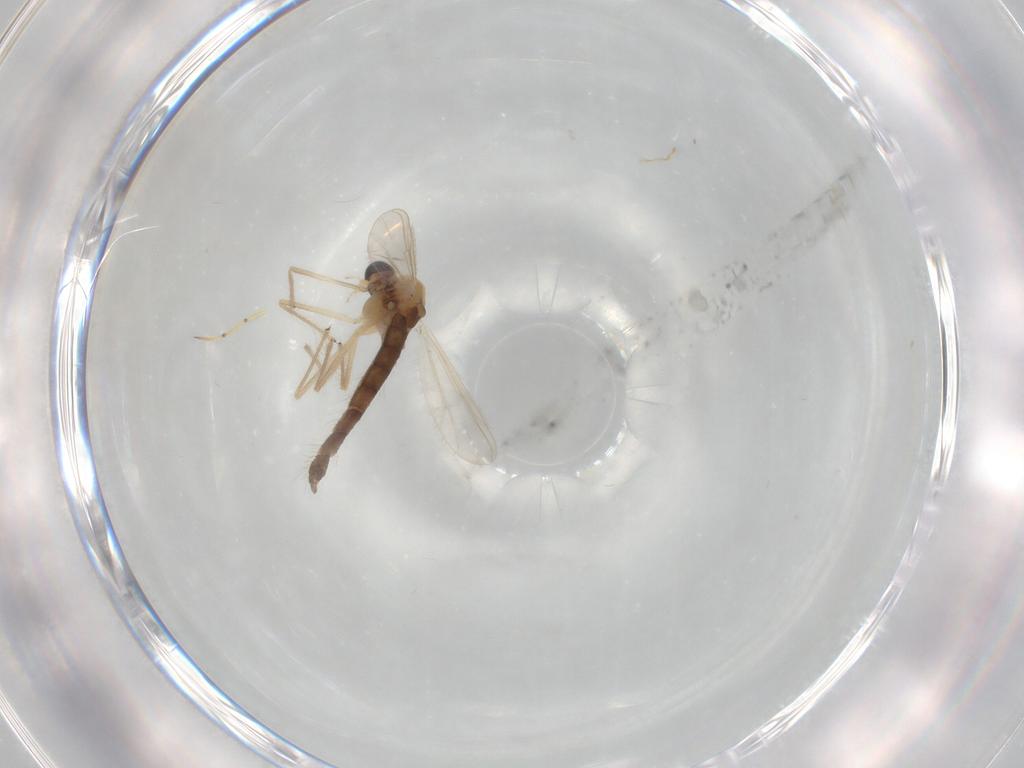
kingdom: Animalia
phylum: Arthropoda
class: Insecta
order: Diptera
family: Chironomidae
